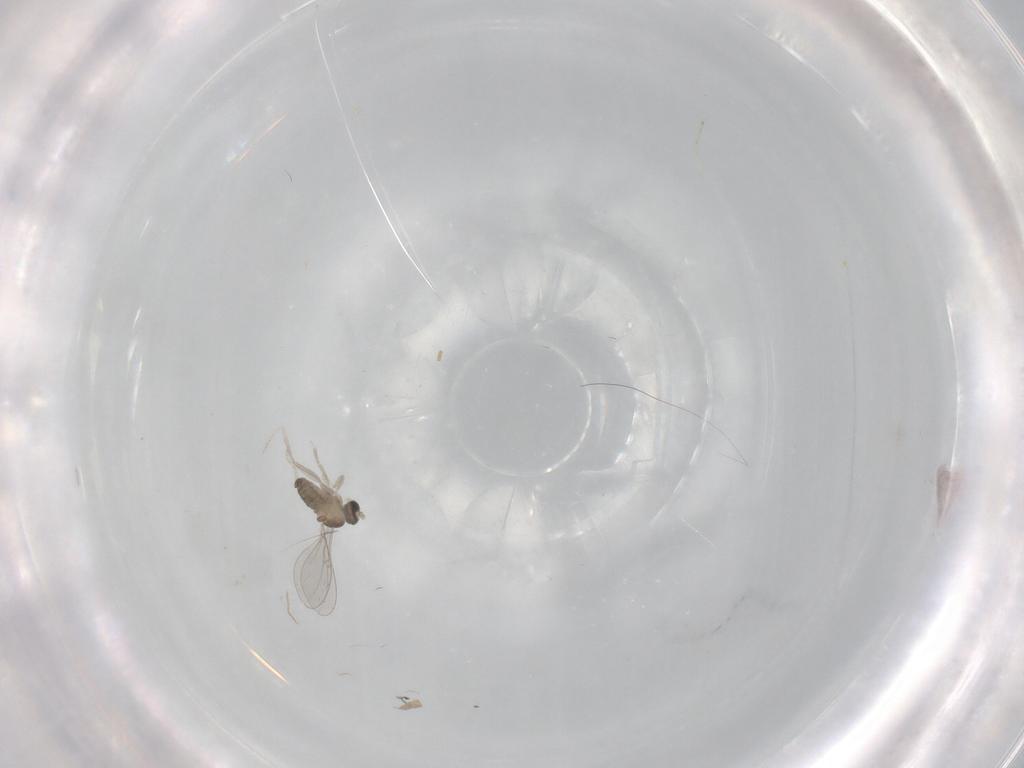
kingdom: Animalia
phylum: Arthropoda
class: Insecta
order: Diptera
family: Cecidomyiidae
